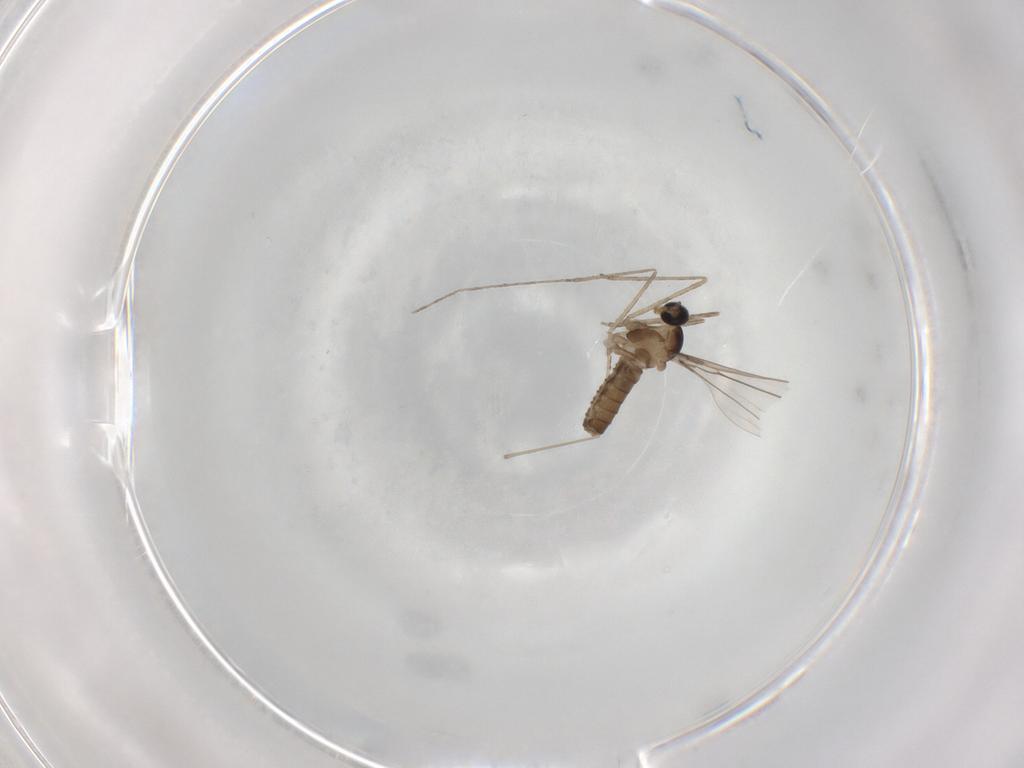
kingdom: Animalia
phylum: Arthropoda
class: Insecta
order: Diptera
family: Cecidomyiidae
